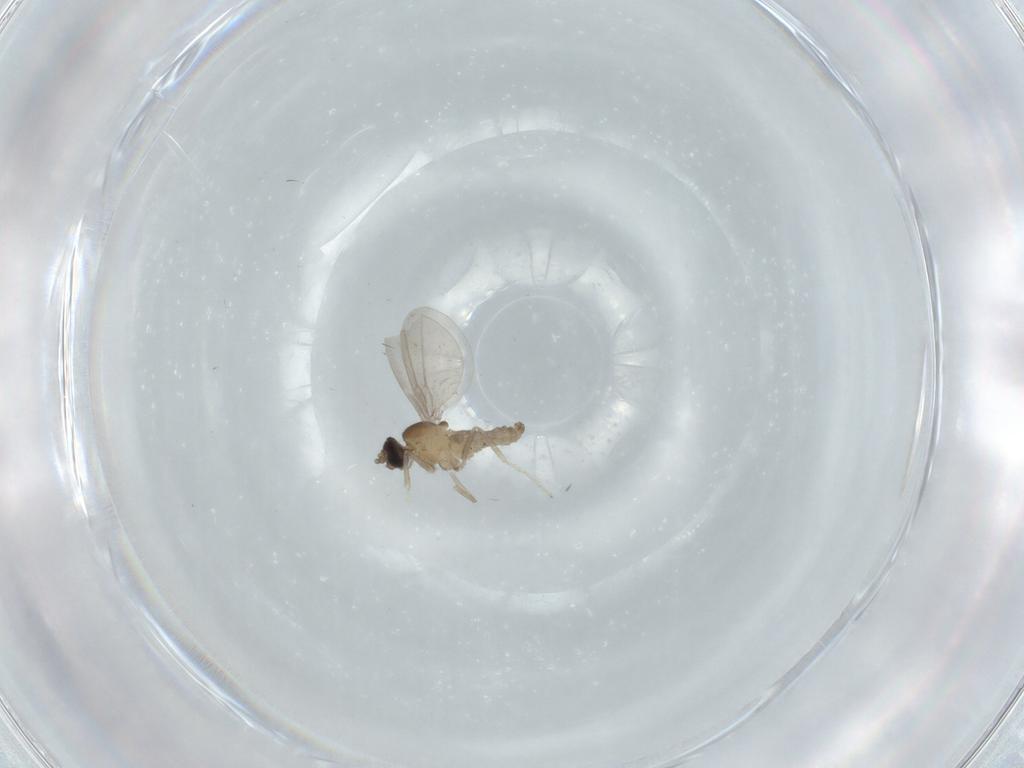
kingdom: Animalia
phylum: Arthropoda
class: Insecta
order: Diptera
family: Cecidomyiidae
